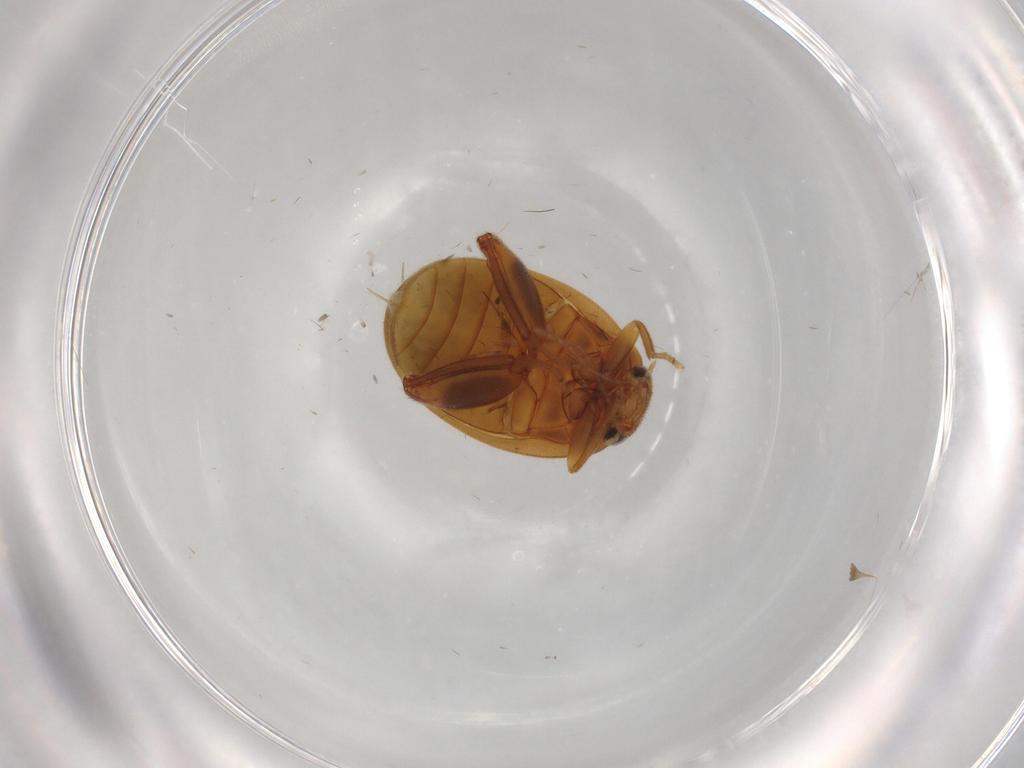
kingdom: Animalia
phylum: Arthropoda
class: Insecta
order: Coleoptera
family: Scirtidae
